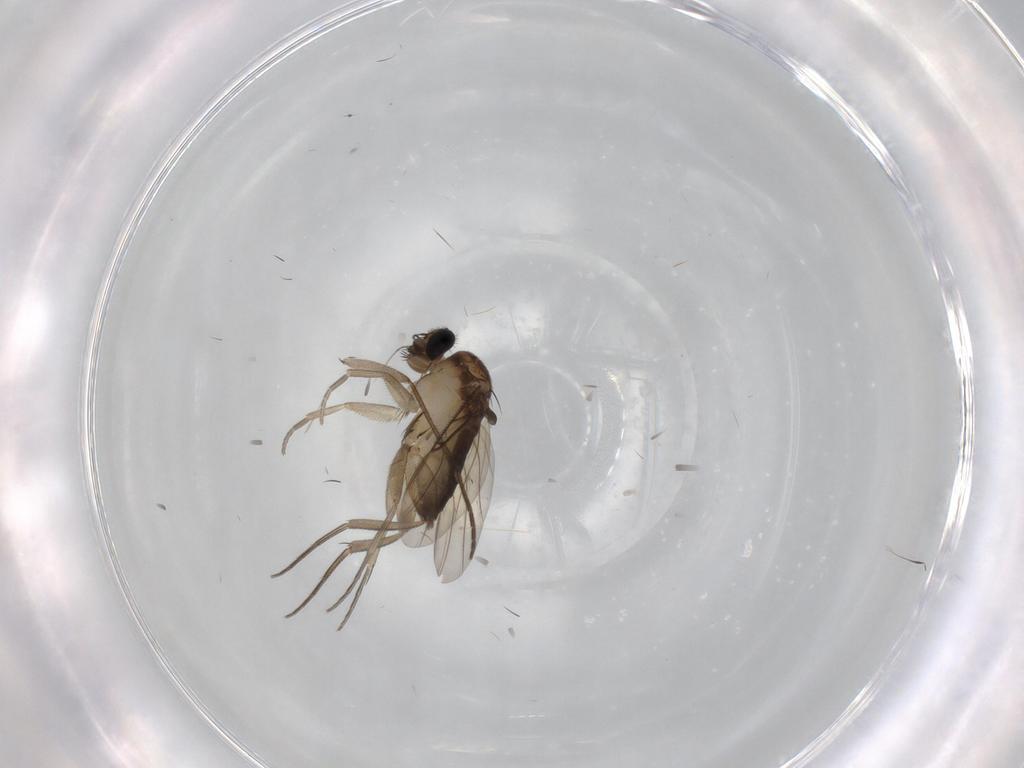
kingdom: Animalia
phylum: Arthropoda
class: Insecta
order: Diptera
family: Phoridae
